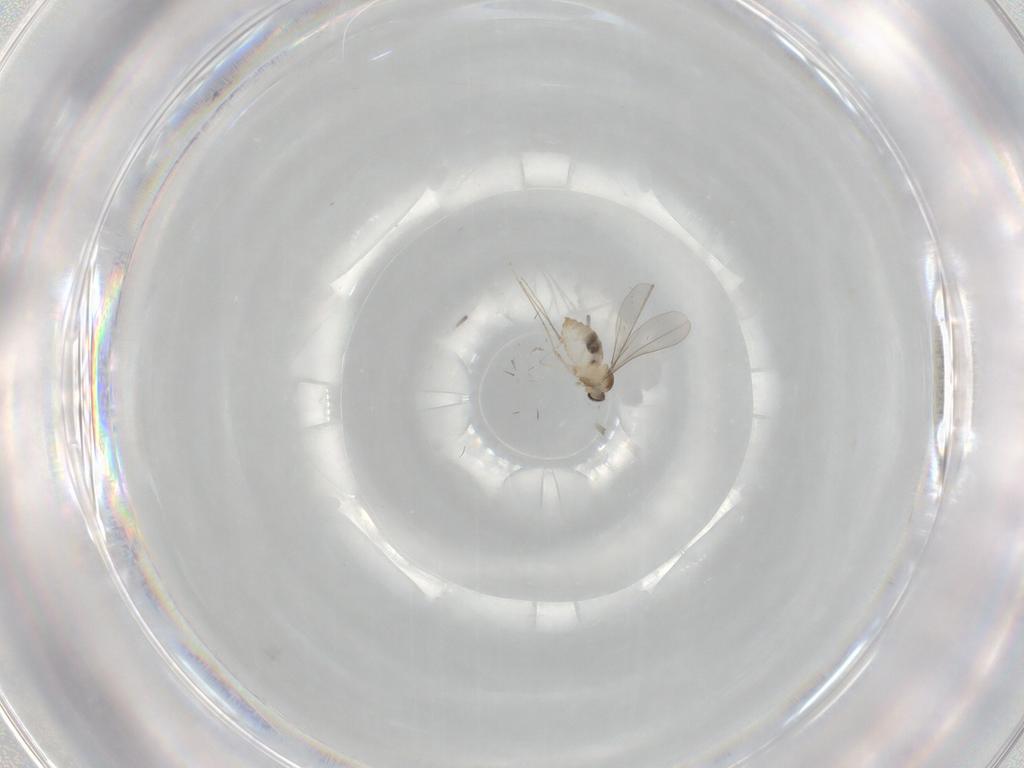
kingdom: Animalia
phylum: Arthropoda
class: Insecta
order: Diptera
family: Cecidomyiidae
